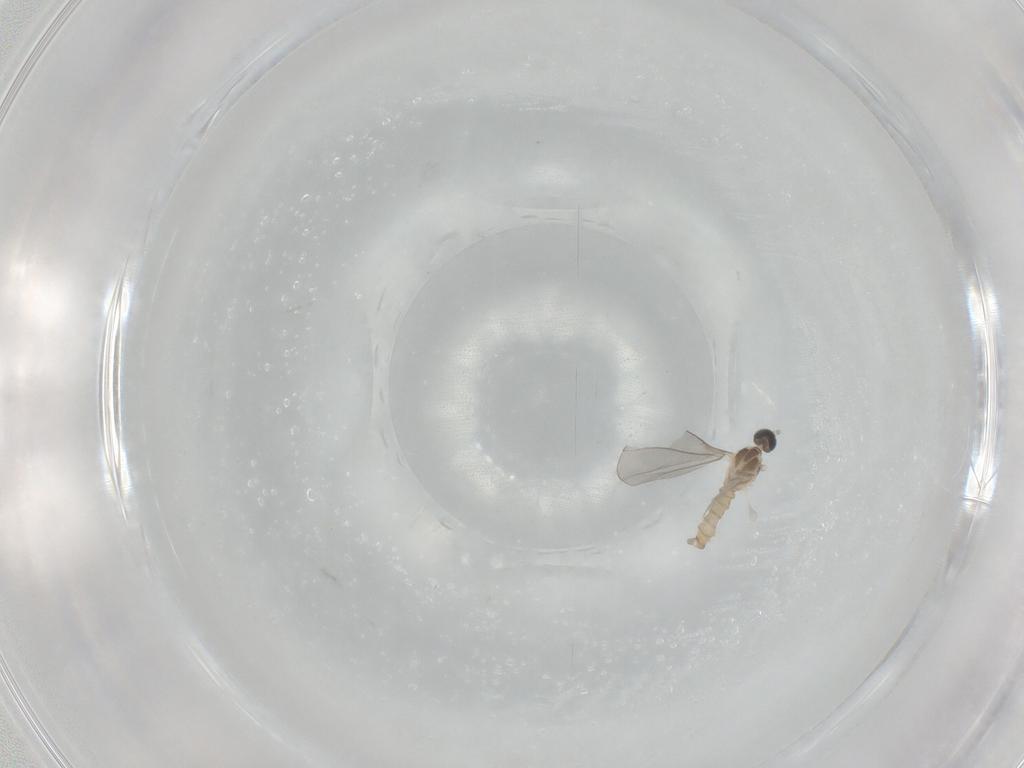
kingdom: Animalia
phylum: Arthropoda
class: Insecta
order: Diptera
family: Cecidomyiidae
